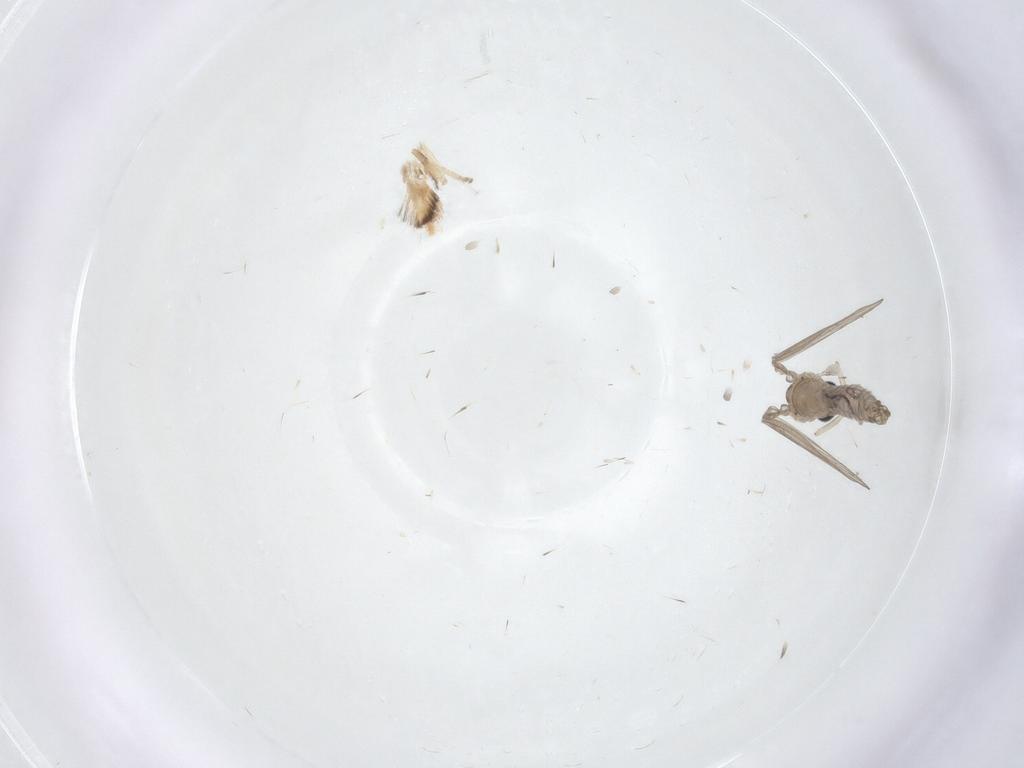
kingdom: Animalia
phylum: Arthropoda
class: Insecta
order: Diptera
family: Psychodidae
